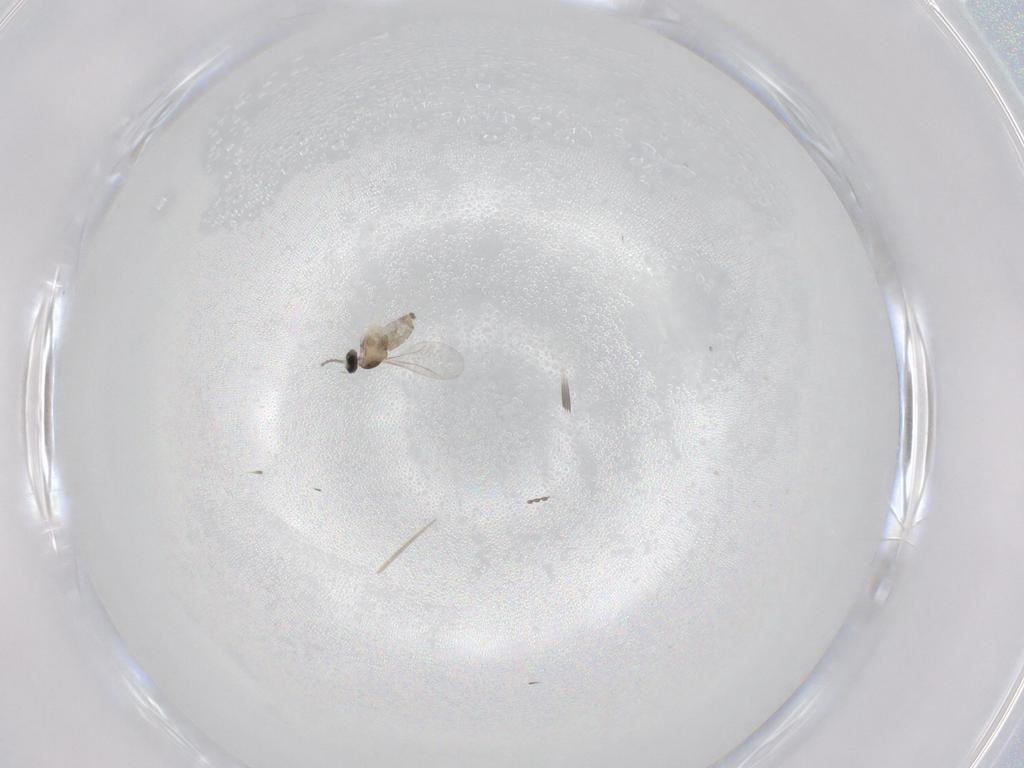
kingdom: Animalia
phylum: Arthropoda
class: Insecta
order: Diptera
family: Cecidomyiidae
